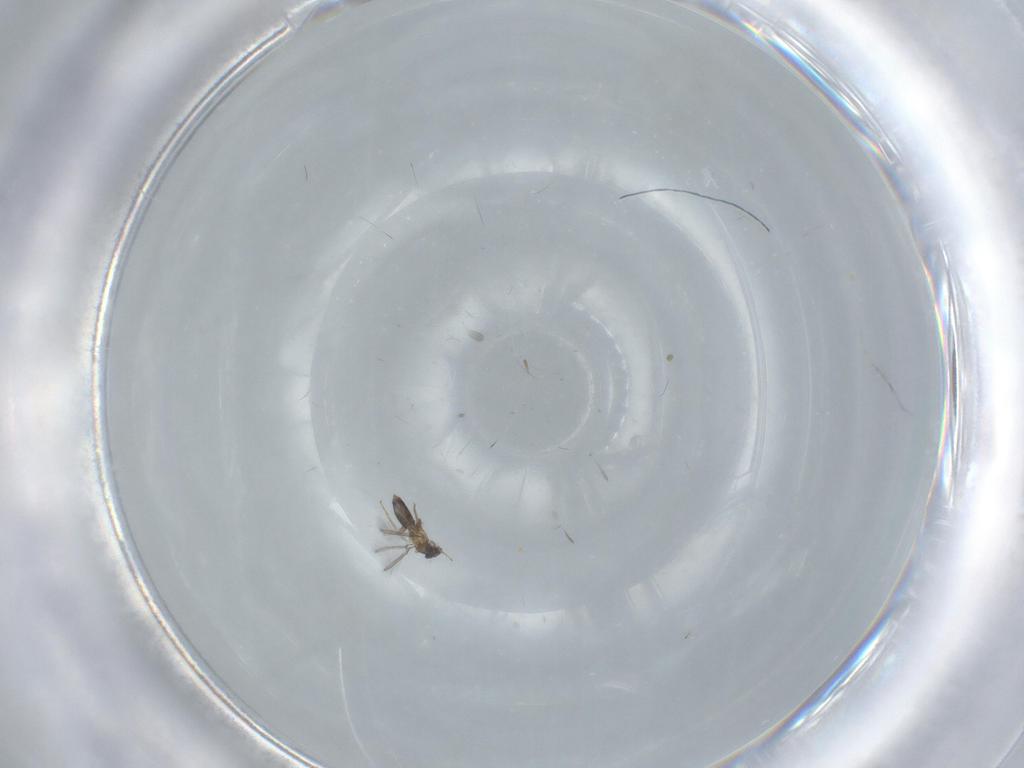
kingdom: Animalia
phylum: Arthropoda
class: Insecta
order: Hymenoptera
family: Mymaridae
